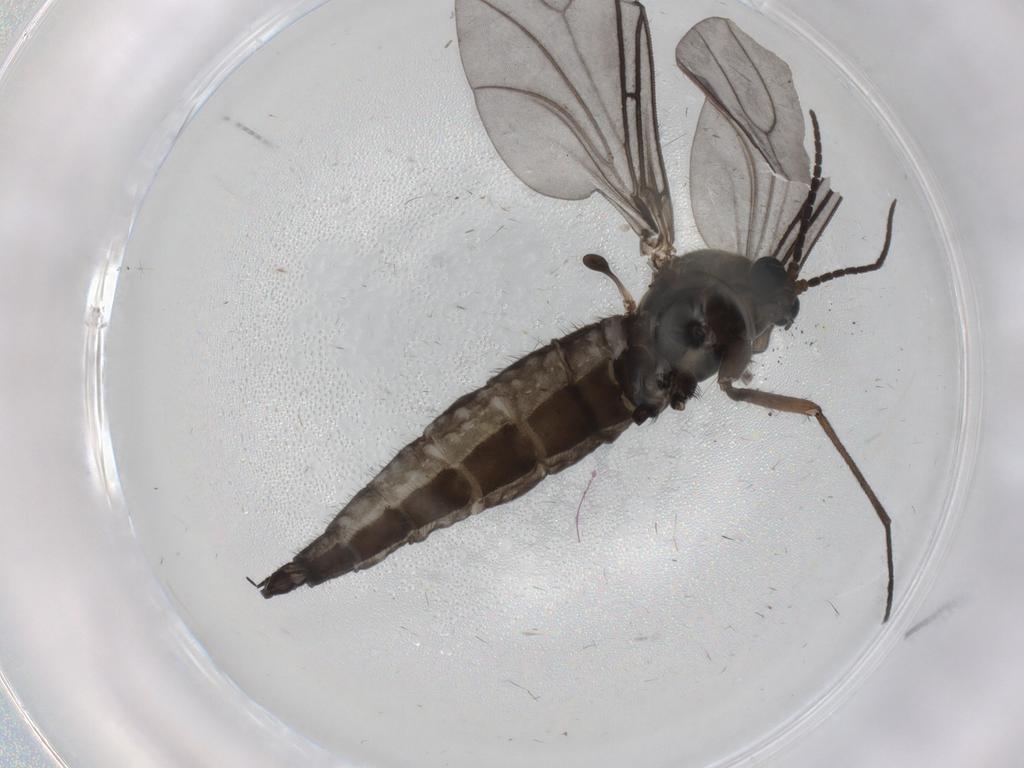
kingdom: Animalia
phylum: Arthropoda
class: Insecta
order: Diptera
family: Sciaridae
